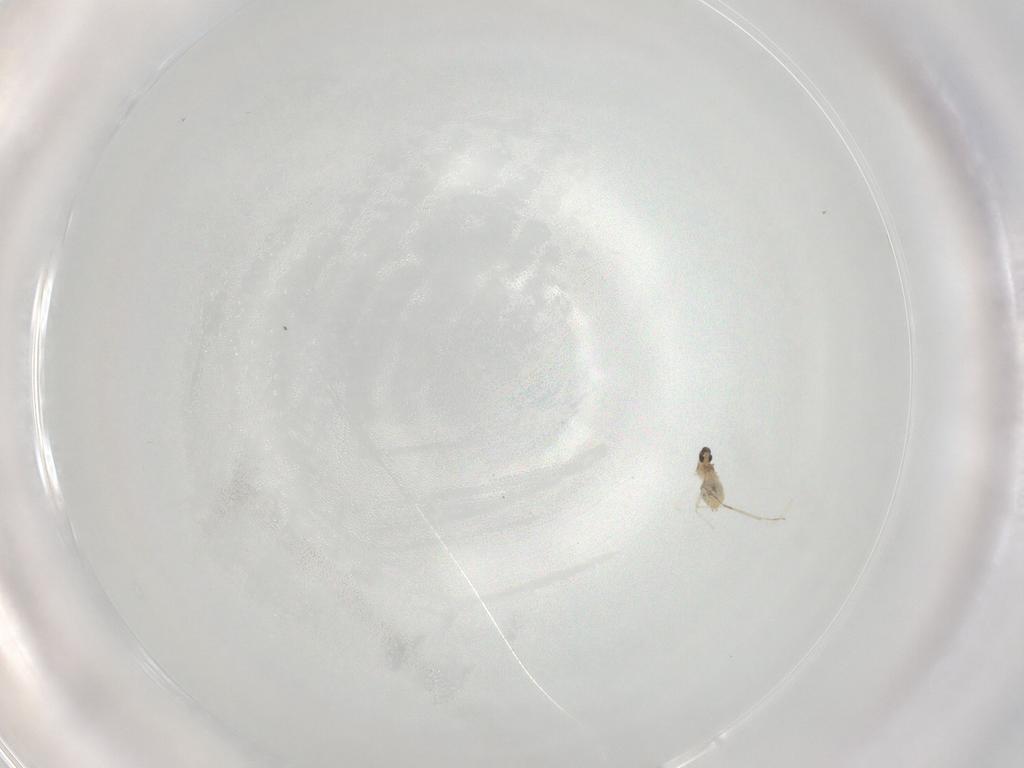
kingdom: Animalia
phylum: Arthropoda
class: Insecta
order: Diptera
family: Cecidomyiidae
